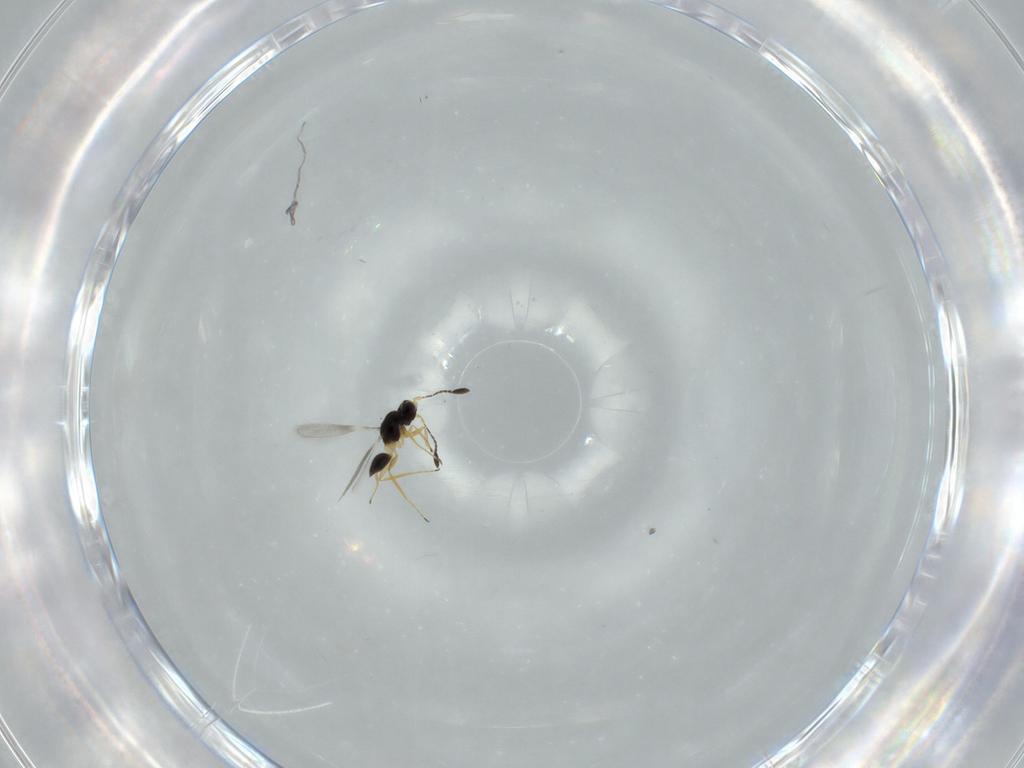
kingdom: Animalia
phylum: Arthropoda
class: Insecta
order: Hymenoptera
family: Mymaridae
